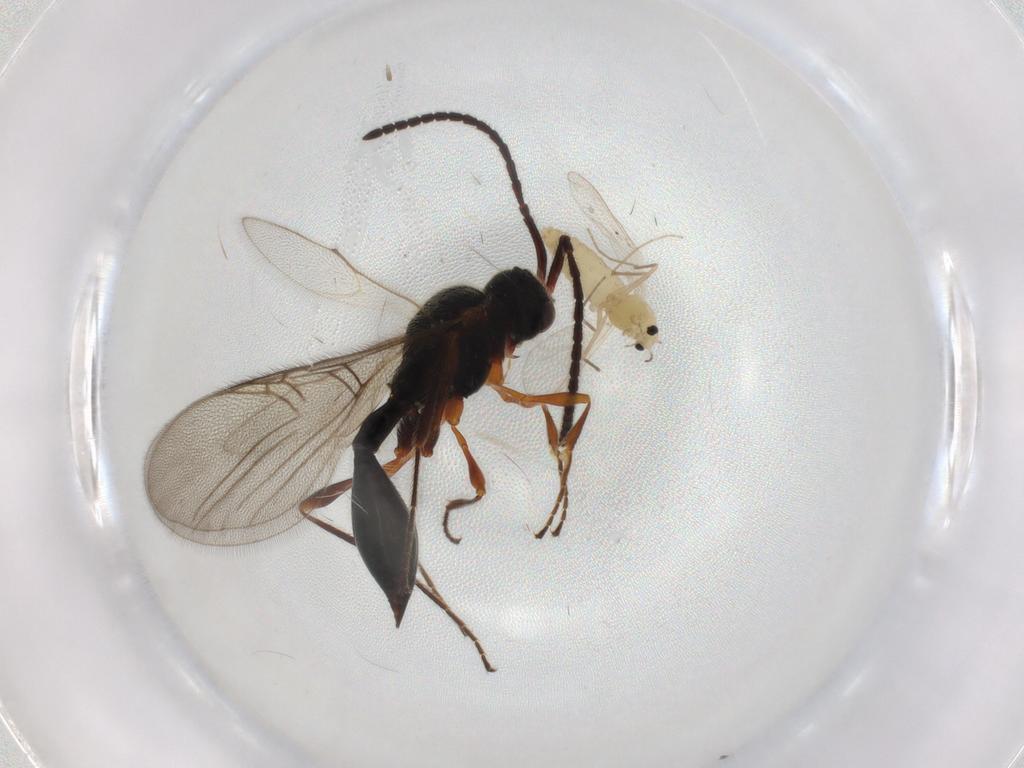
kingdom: Animalia
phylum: Arthropoda
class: Insecta
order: Diptera
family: Chironomidae
